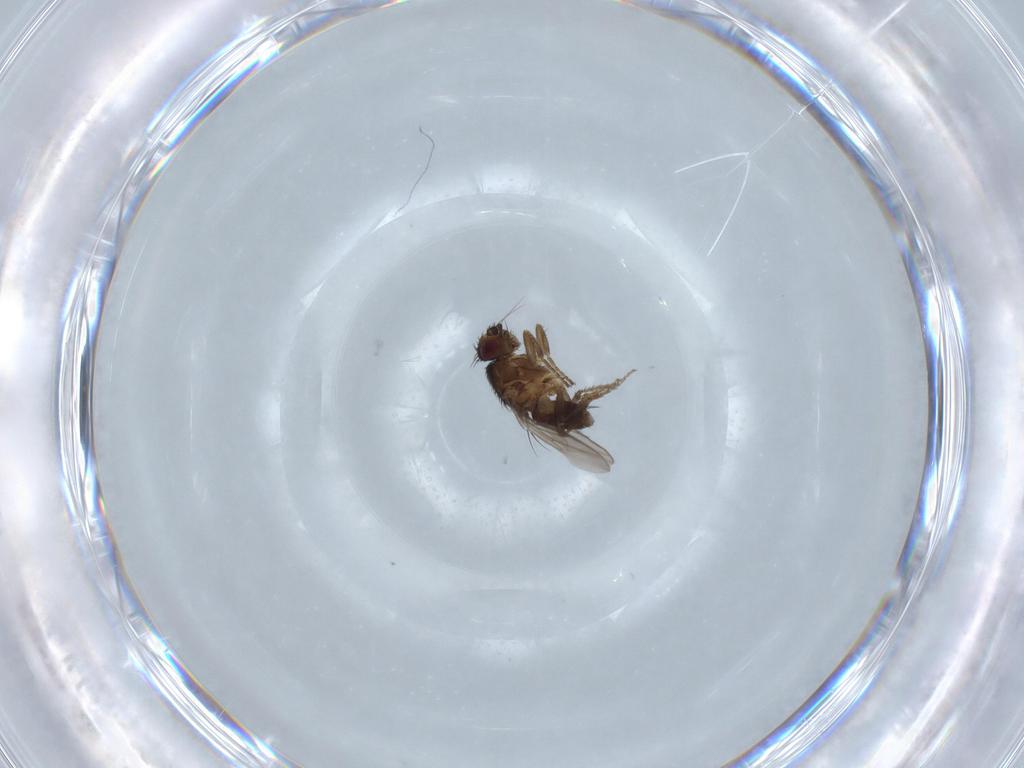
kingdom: Animalia
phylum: Arthropoda
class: Insecta
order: Diptera
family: Sphaeroceridae
